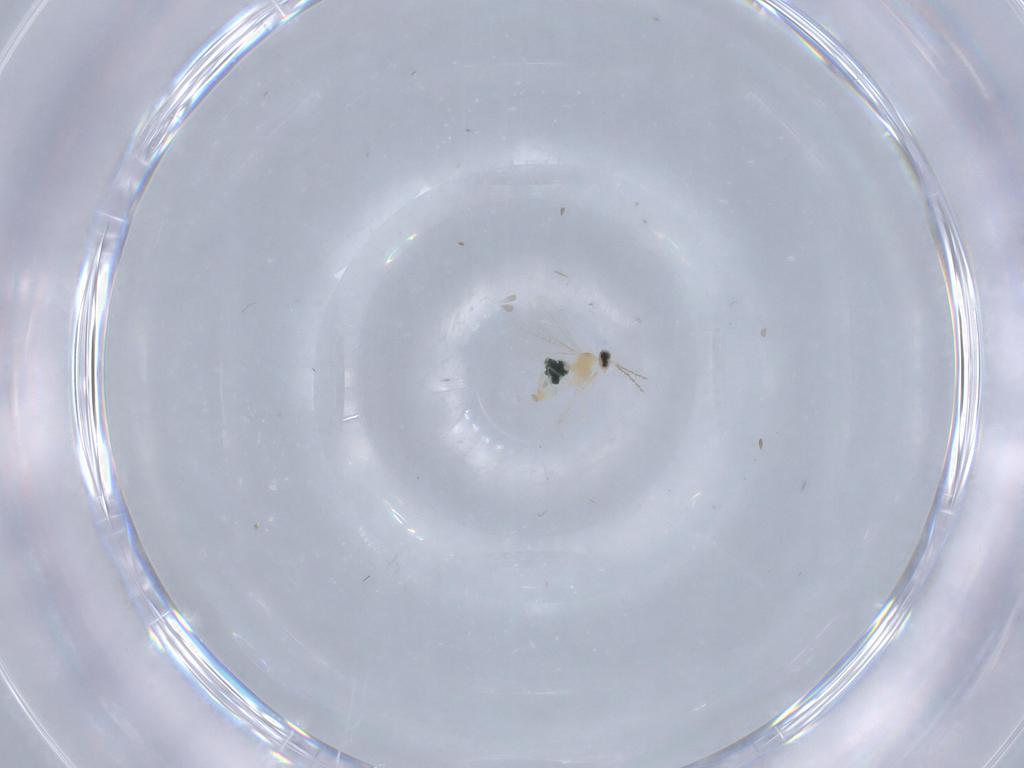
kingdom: Animalia
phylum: Arthropoda
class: Insecta
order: Diptera
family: Cecidomyiidae
